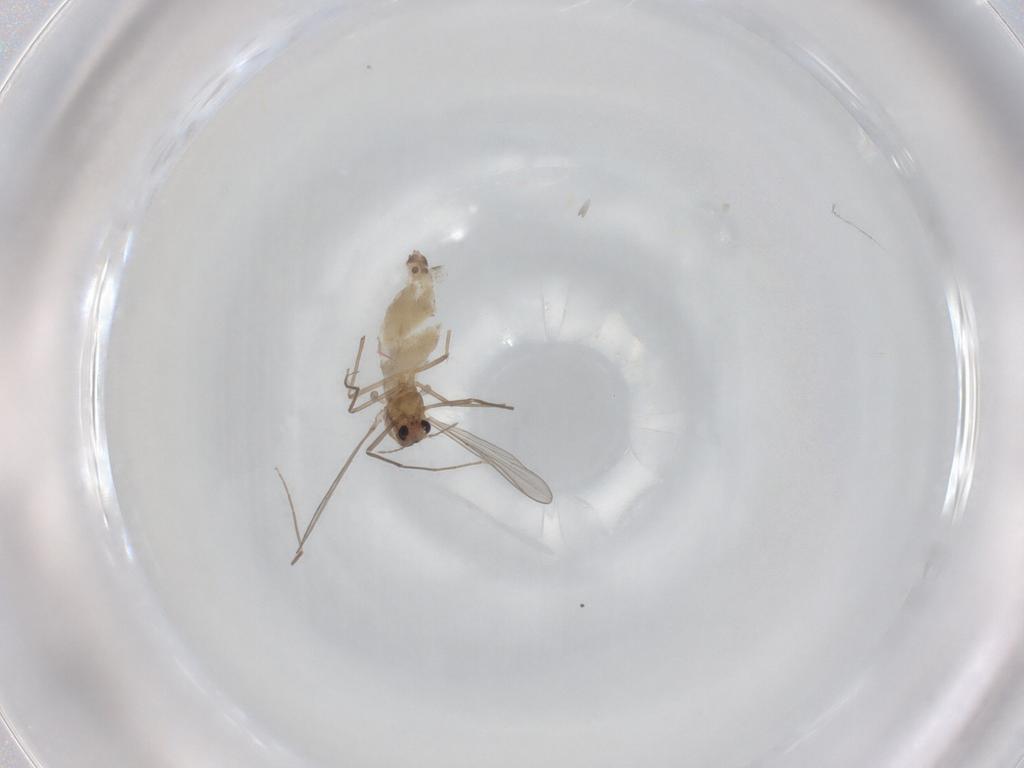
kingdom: Animalia
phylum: Arthropoda
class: Insecta
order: Diptera
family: Chironomidae
